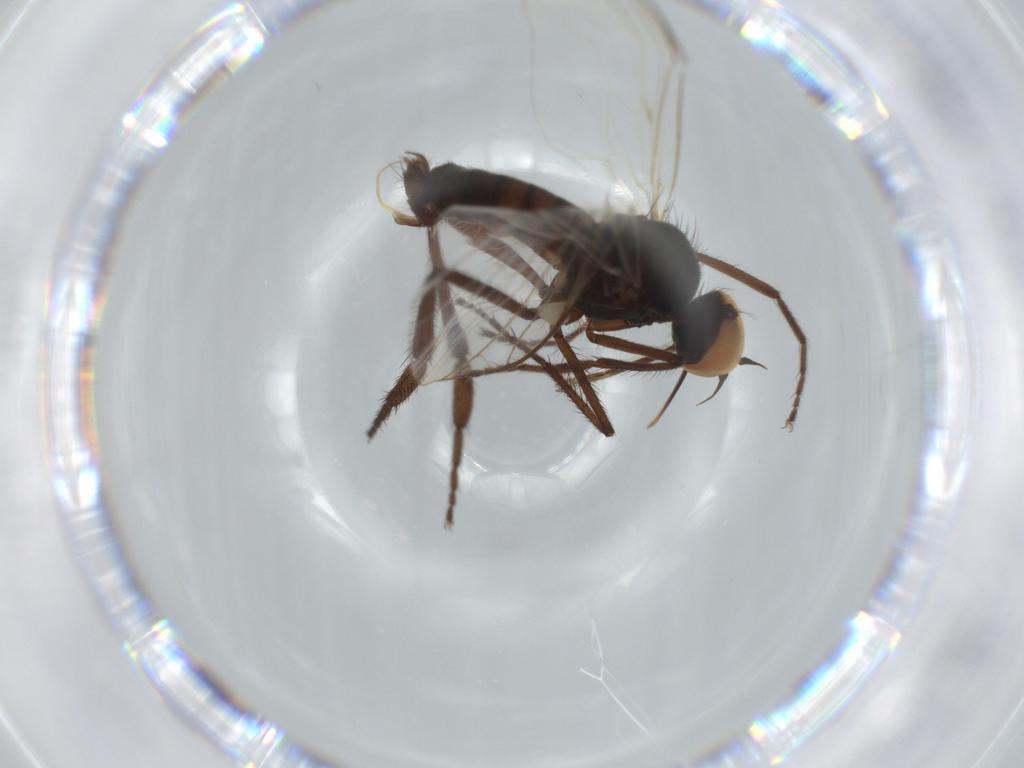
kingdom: Animalia
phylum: Arthropoda
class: Insecta
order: Diptera
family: Empididae
